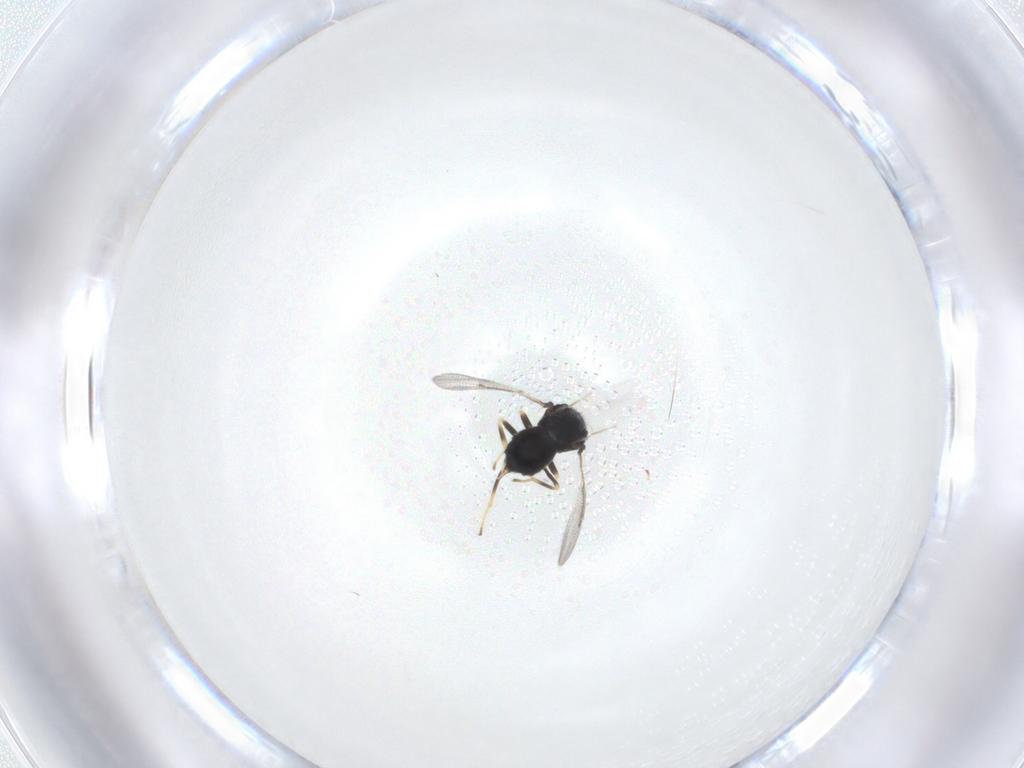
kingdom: Animalia
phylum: Arthropoda
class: Insecta
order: Hymenoptera
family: Eulophidae
